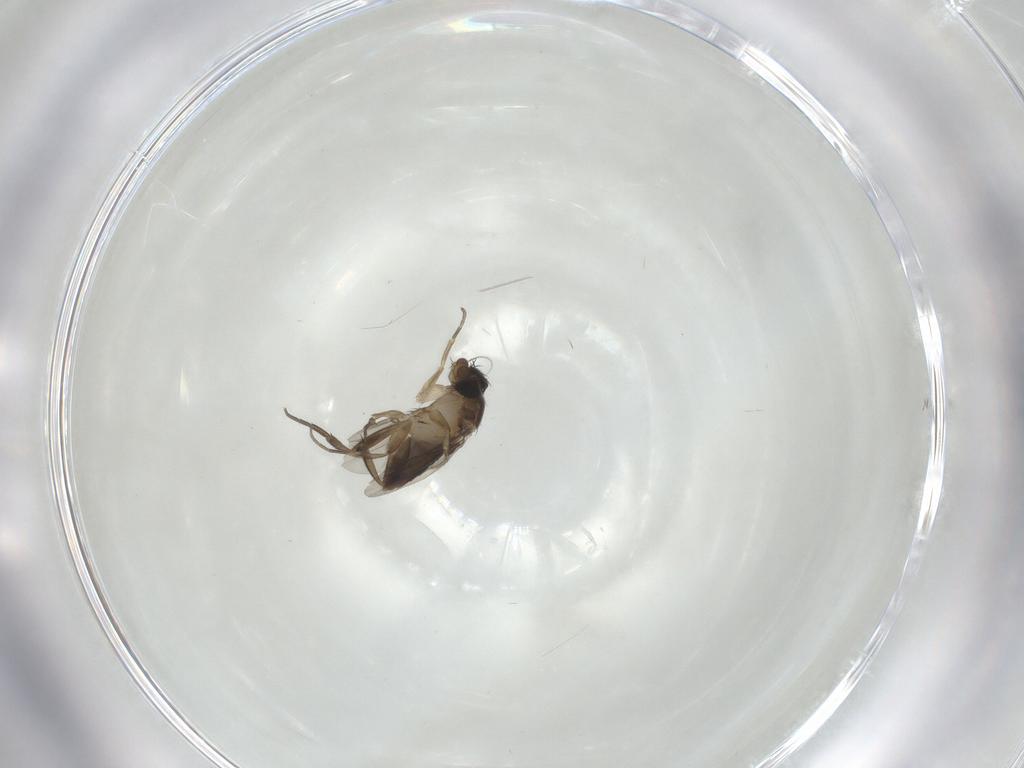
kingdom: Animalia
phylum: Arthropoda
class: Insecta
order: Diptera
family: Phoridae
